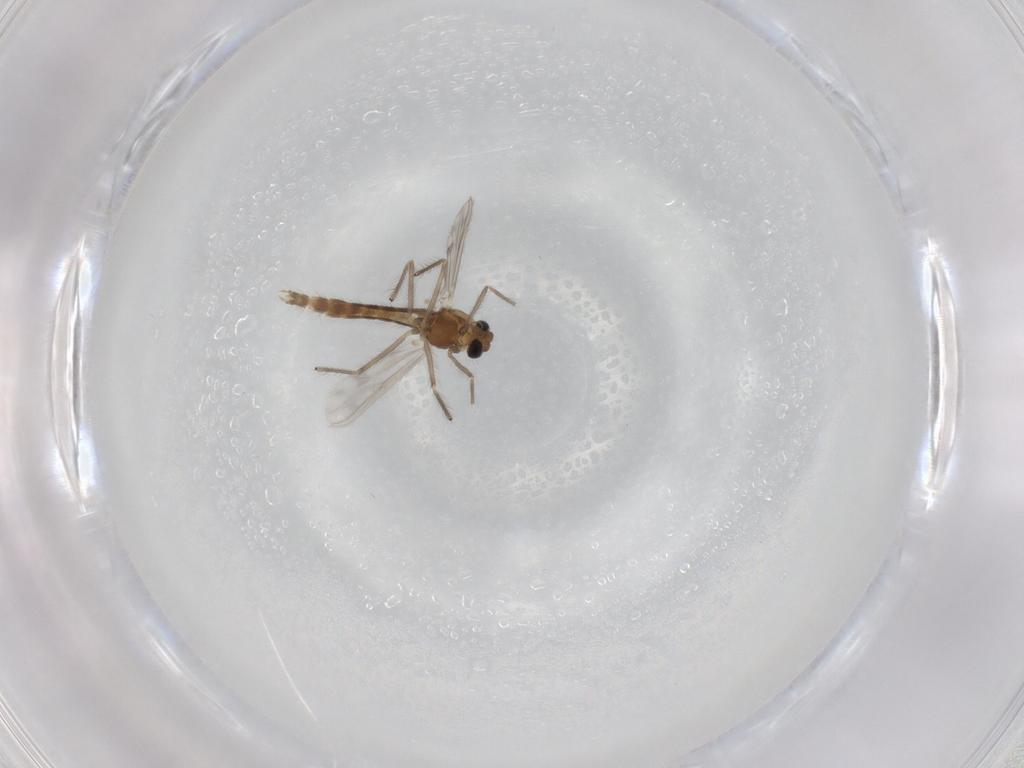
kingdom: Animalia
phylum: Arthropoda
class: Insecta
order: Diptera
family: Chironomidae
